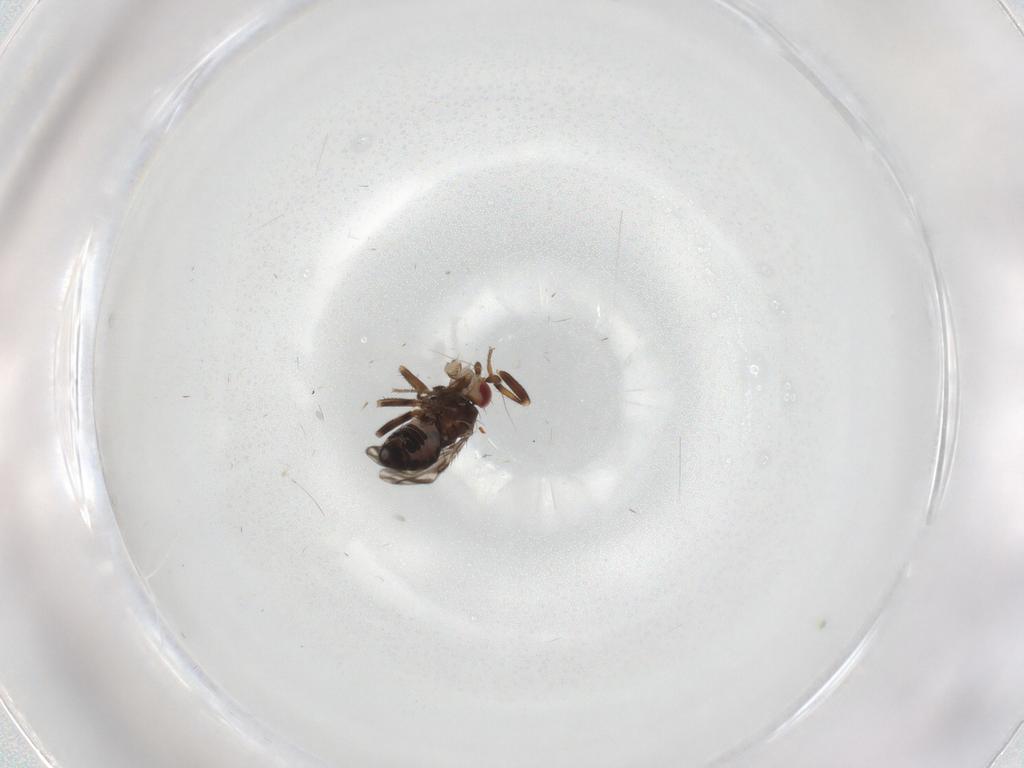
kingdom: Animalia
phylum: Arthropoda
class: Insecta
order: Diptera
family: Sphaeroceridae
